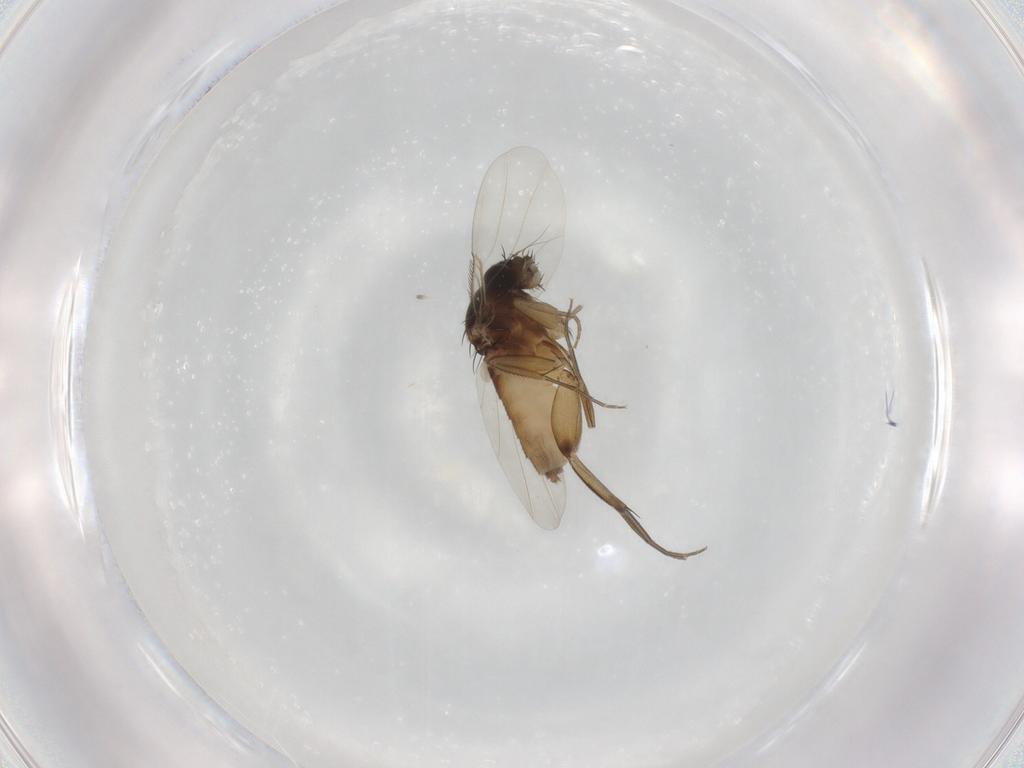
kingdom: Animalia
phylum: Arthropoda
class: Insecta
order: Diptera
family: Phoridae
